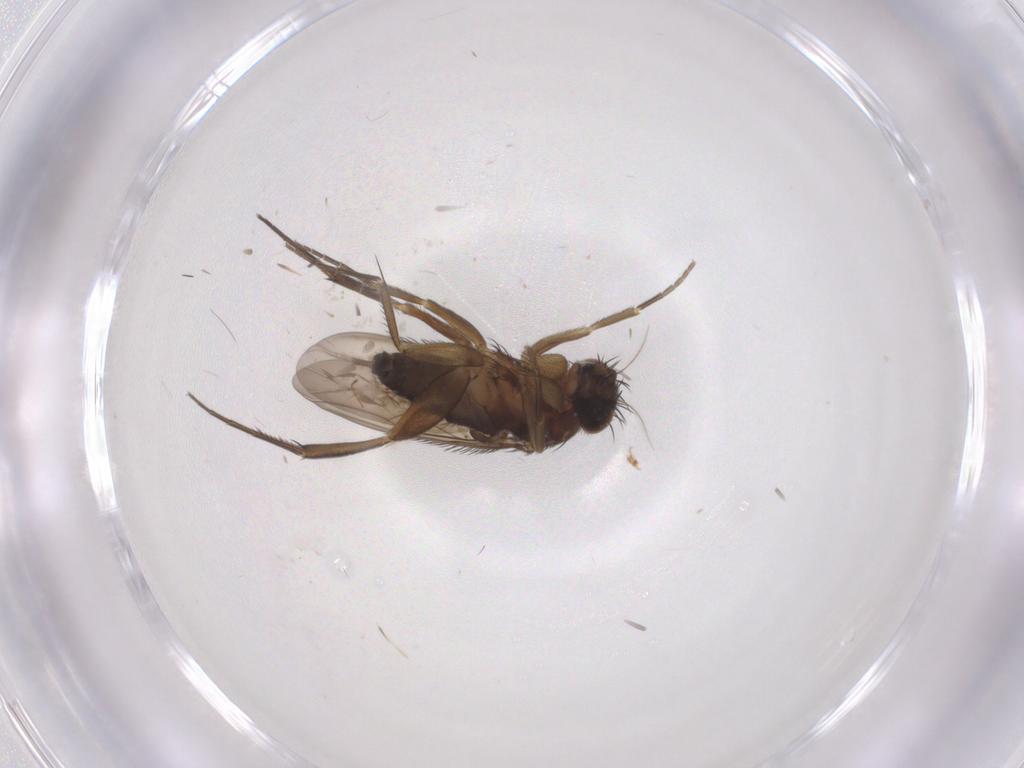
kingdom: Animalia
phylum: Arthropoda
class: Insecta
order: Diptera
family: Phoridae
